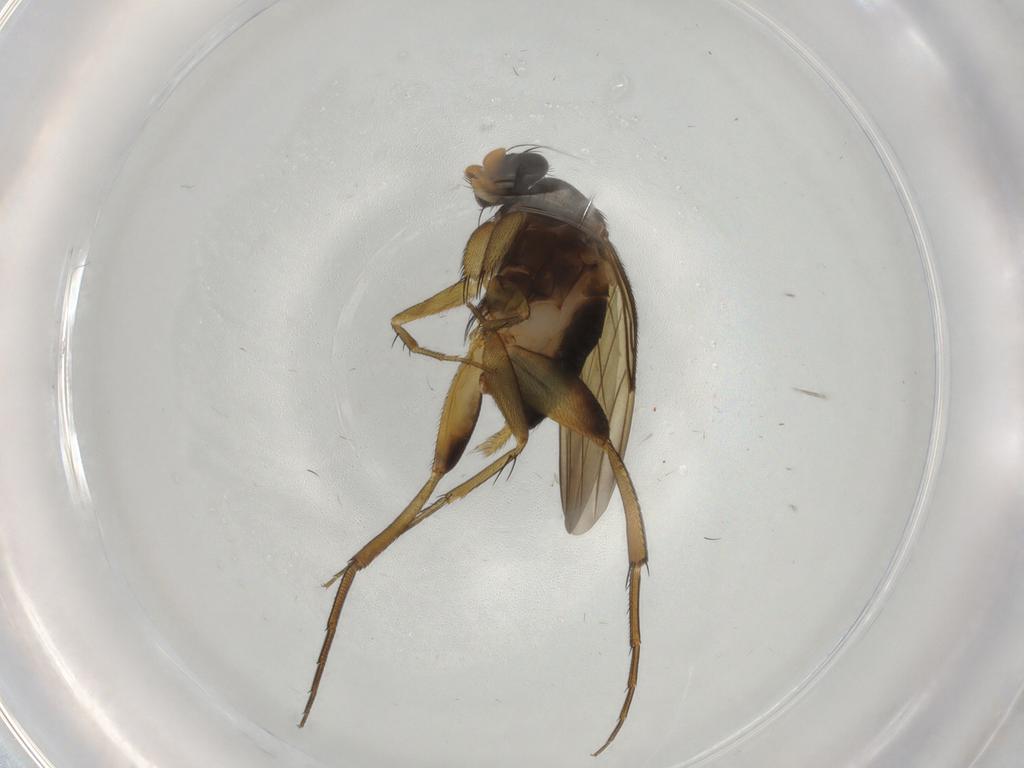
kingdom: Animalia
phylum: Arthropoda
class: Insecta
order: Diptera
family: Phoridae
